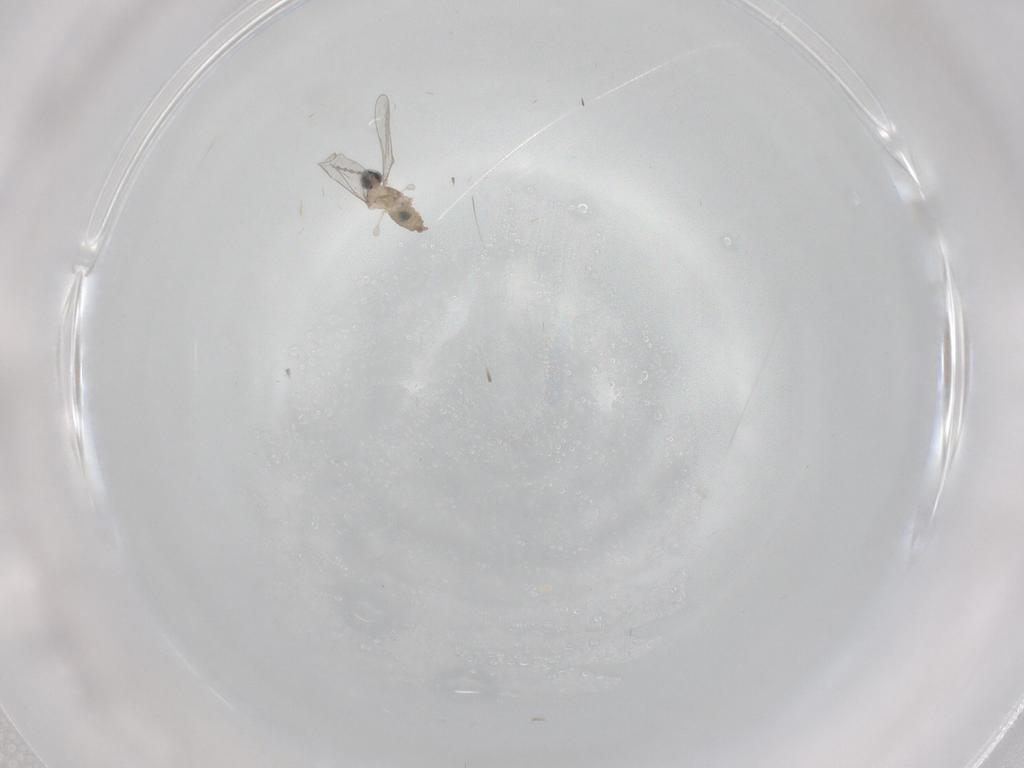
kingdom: Animalia
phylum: Arthropoda
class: Insecta
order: Diptera
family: Cecidomyiidae
